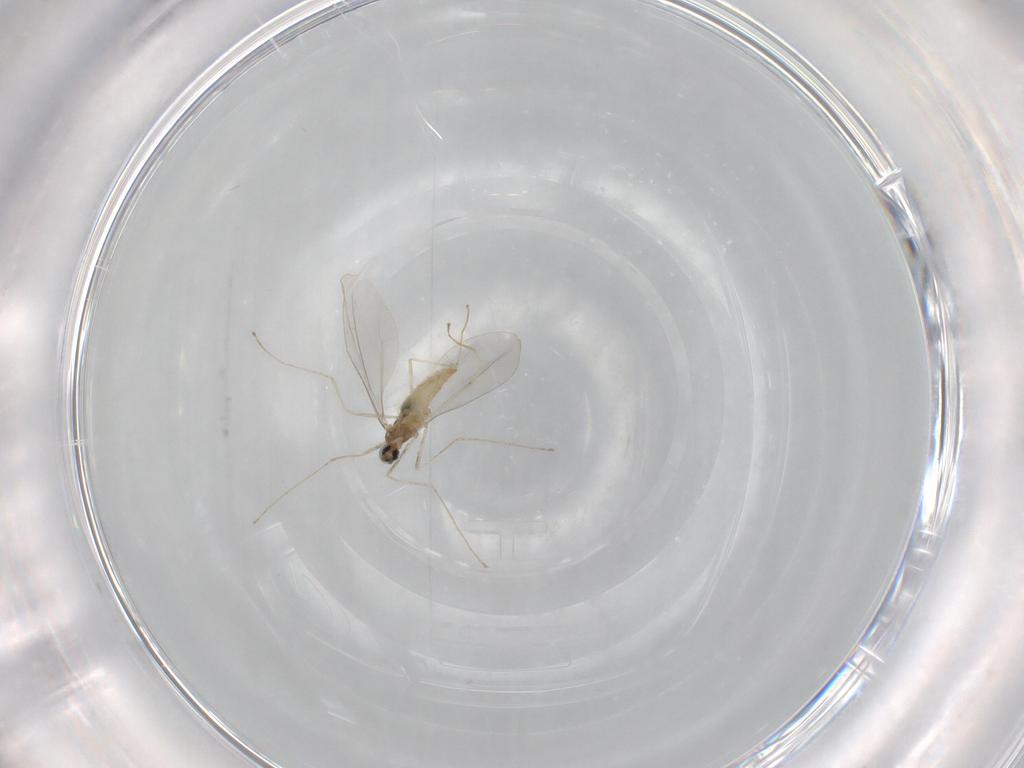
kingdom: Animalia
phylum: Arthropoda
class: Insecta
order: Diptera
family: Cecidomyiidae
